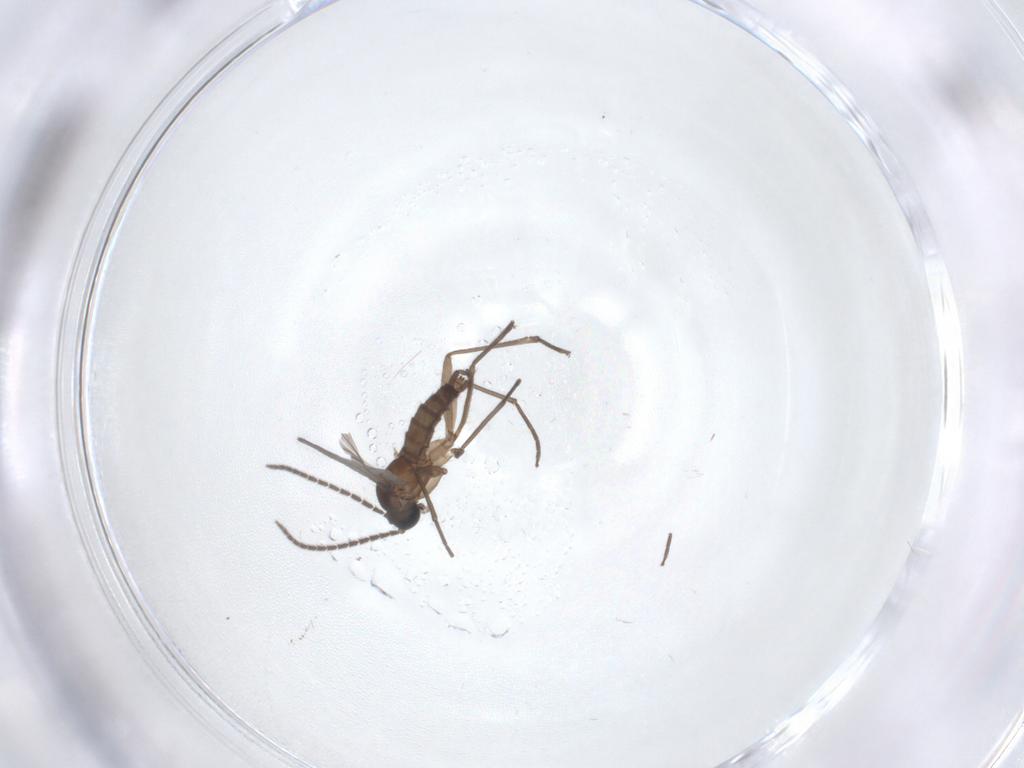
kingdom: Animalia
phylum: Arthropoda
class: Insecta
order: Diptera
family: Sciaridae
